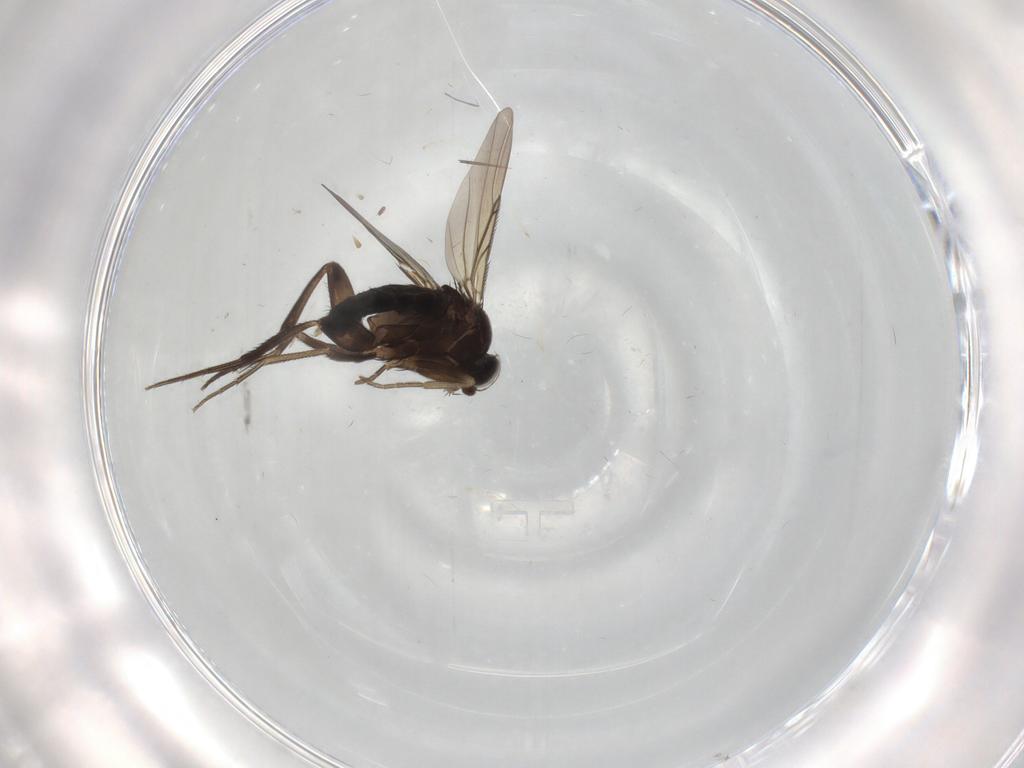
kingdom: Animalia
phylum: Arthropoda
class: Insecta
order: Diptera
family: Phoridae
